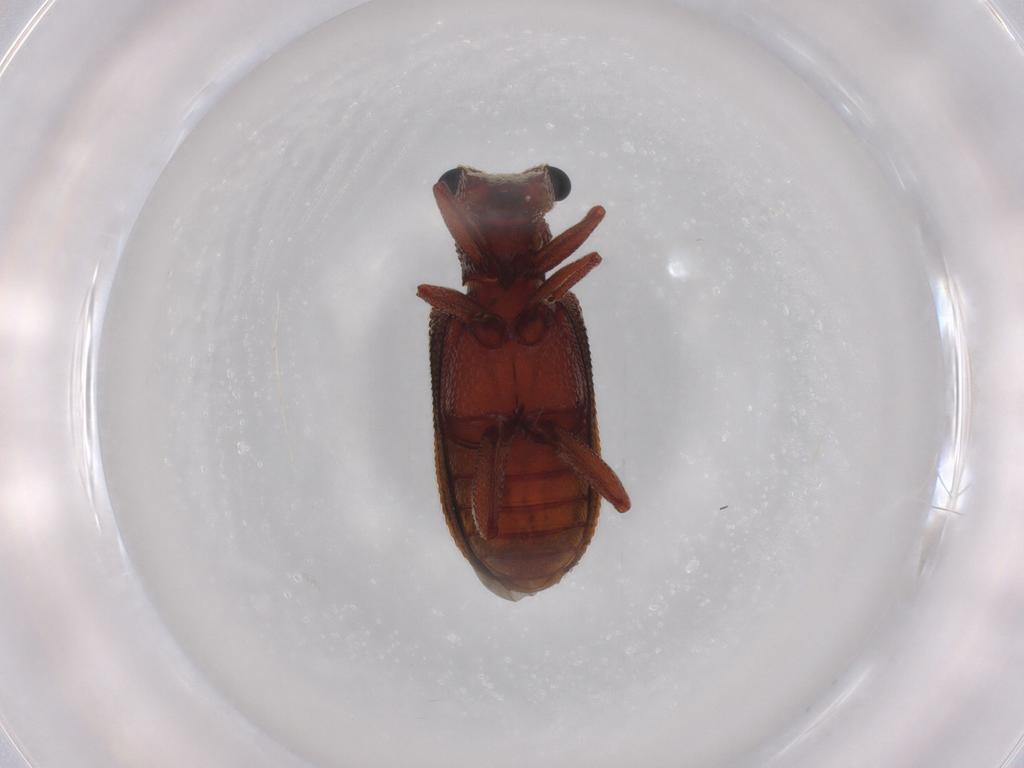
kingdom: Animalia
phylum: Arthropoda
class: Insecta
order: Coleoptera
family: Zopheridae
